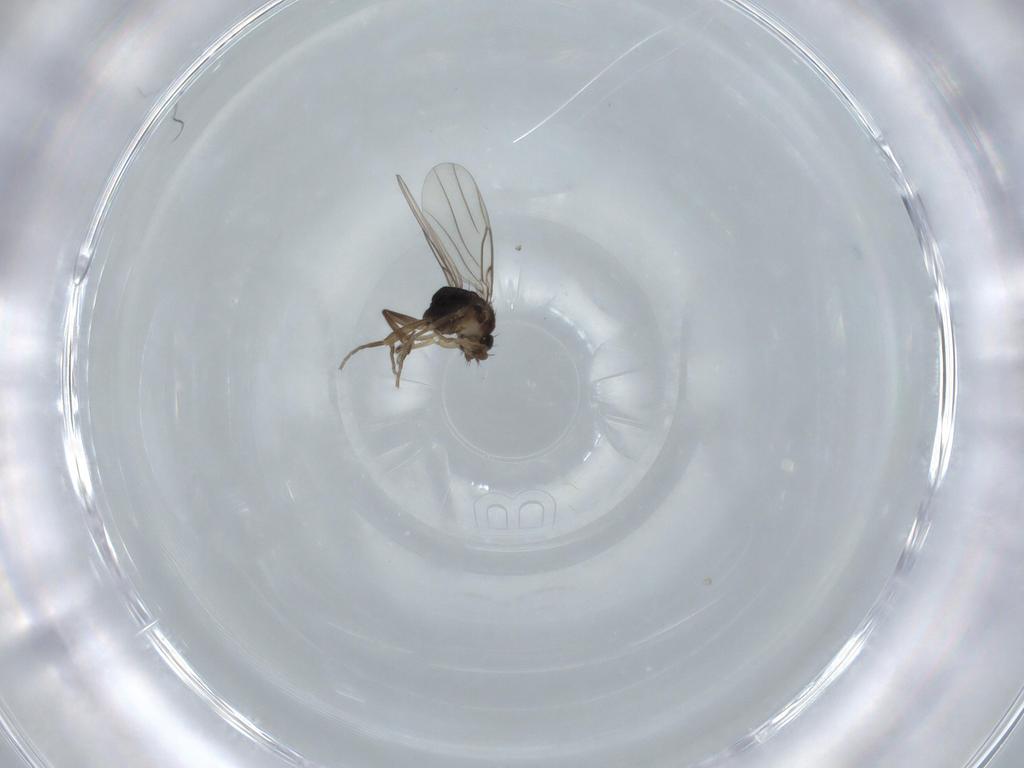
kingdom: Animalia
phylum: Arthropoda
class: Insecta
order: Diptera
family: Phoridae
